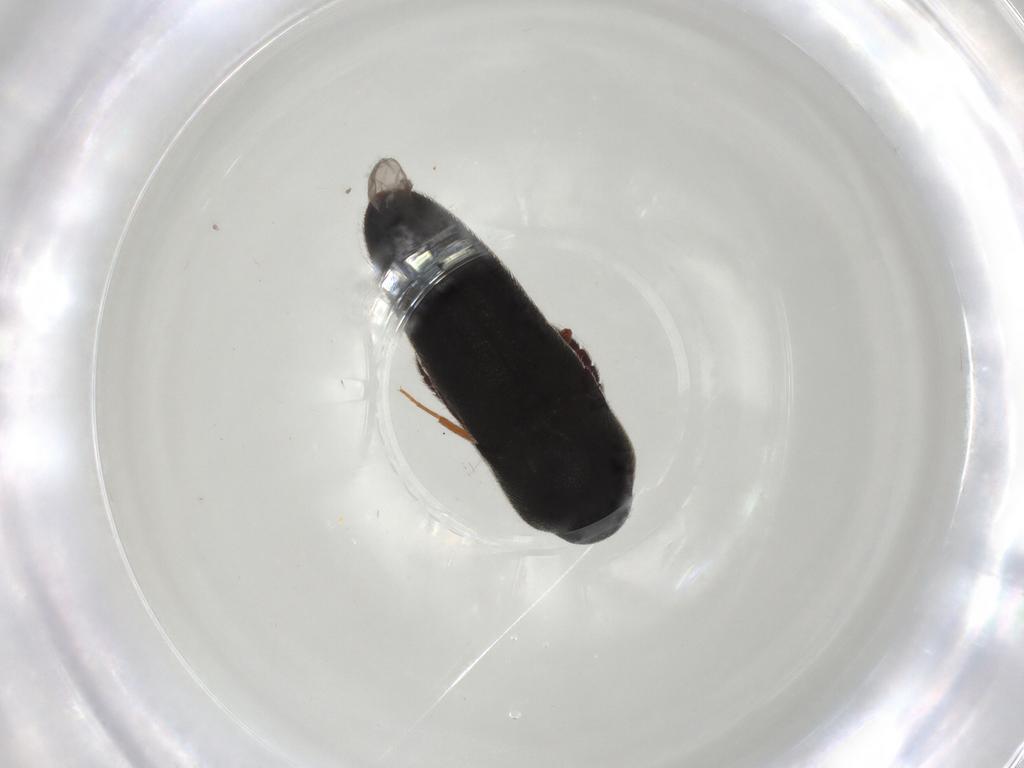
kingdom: Animalia
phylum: Arthropoda
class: Insecta
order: Coleoptera
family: Eucnemidae
